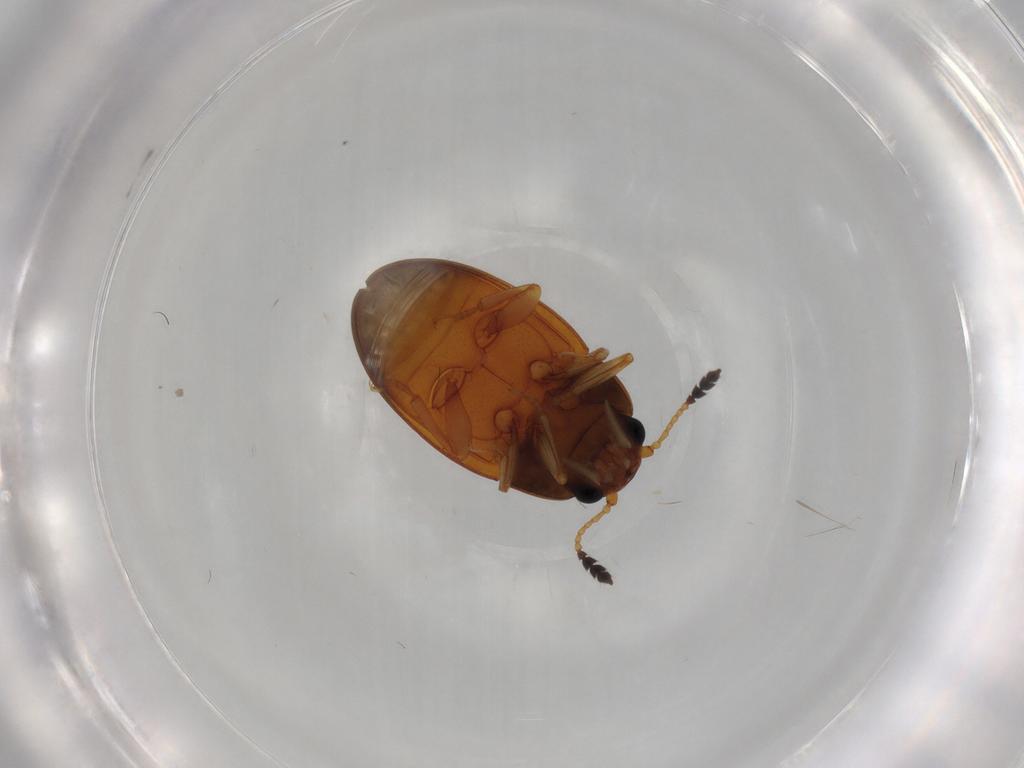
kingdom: Animalia
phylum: Arthropoda
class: Insecta
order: Coleoptera
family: Erotylidae
